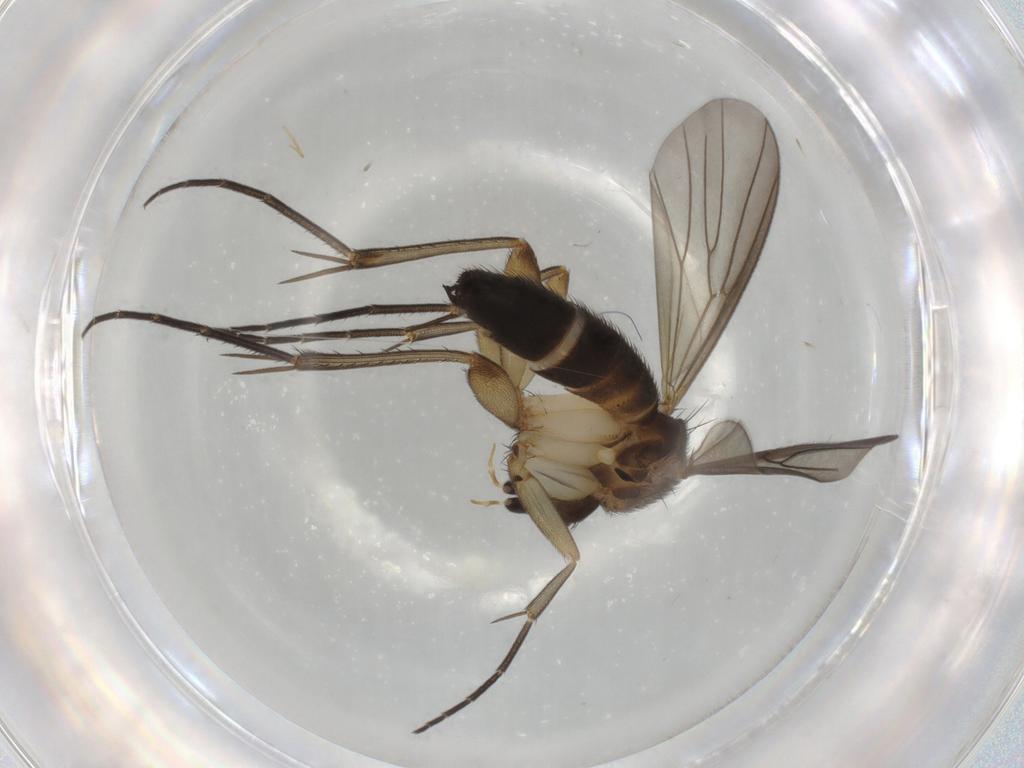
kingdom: Animalia
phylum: Arthropoda
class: Insecta
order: Diptera
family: Mycetophilidae
